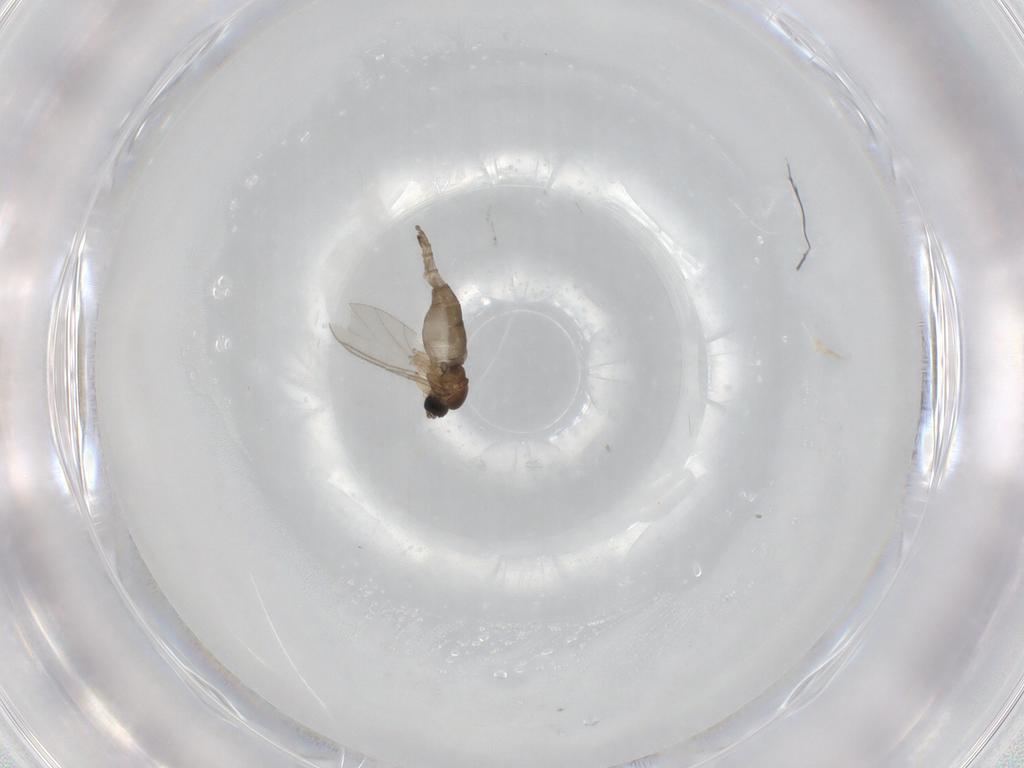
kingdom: Animalia
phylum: Arthropoda
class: Insecta
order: Diptera
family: Sciaridae
